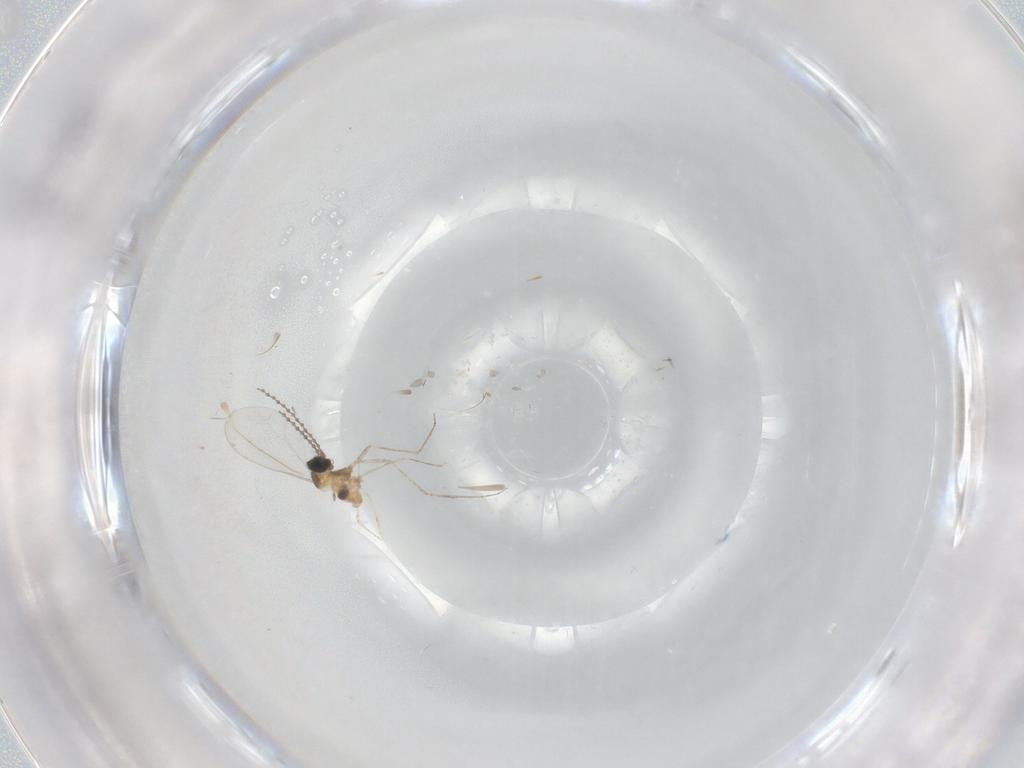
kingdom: Animalia
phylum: Arthropoda
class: Insecta
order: Diptera
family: Cecidomyiidae
